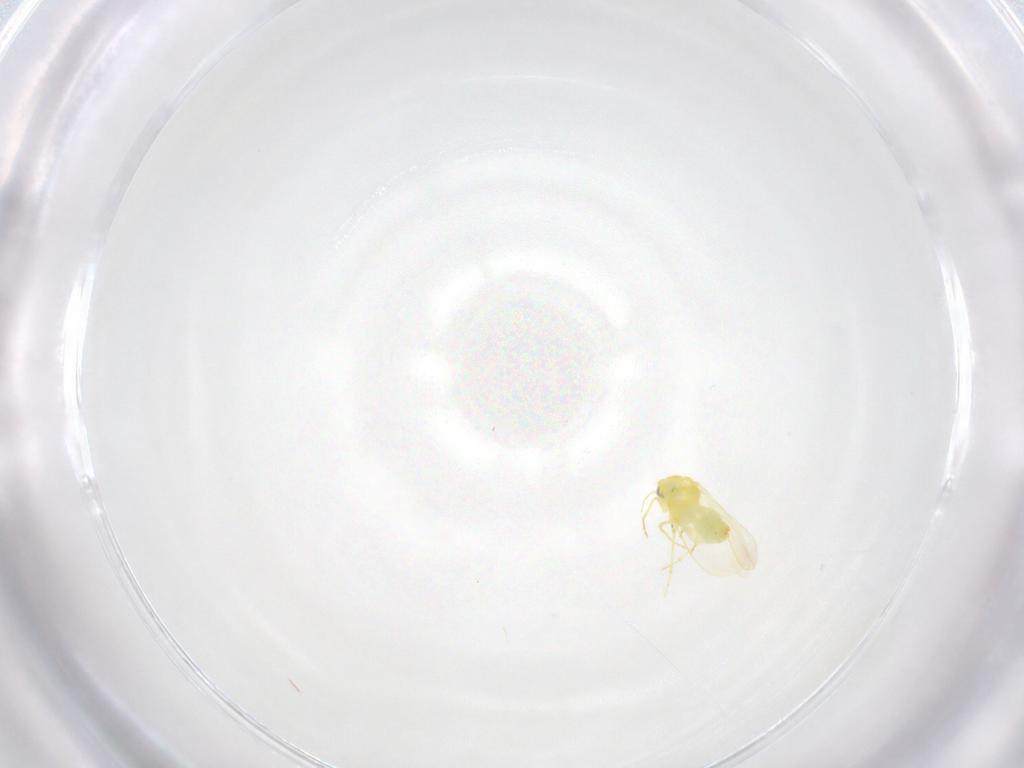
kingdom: Animalia
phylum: Arthropoda
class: Insecta
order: Hemiptera
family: Aleyrodidae
